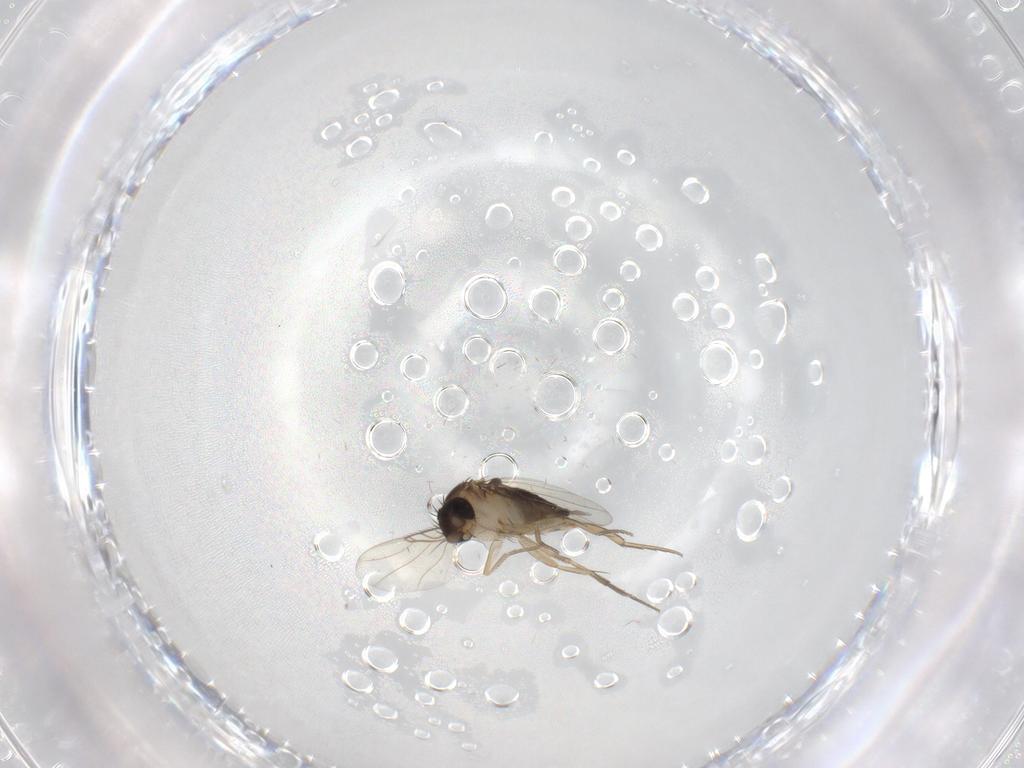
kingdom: Animalia
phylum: Arthropoda
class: Insecta
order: Diptera
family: Phoridae
